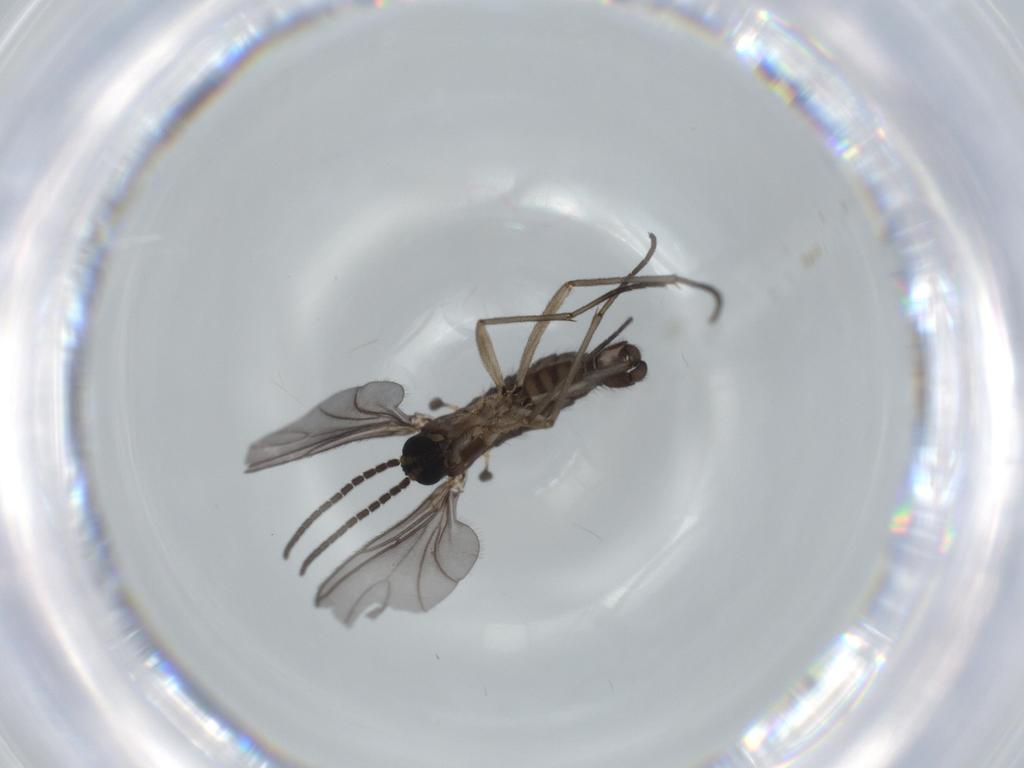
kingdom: Animalia
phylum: Arthropoda
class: Insecta
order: Diptera
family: Sciaridae
